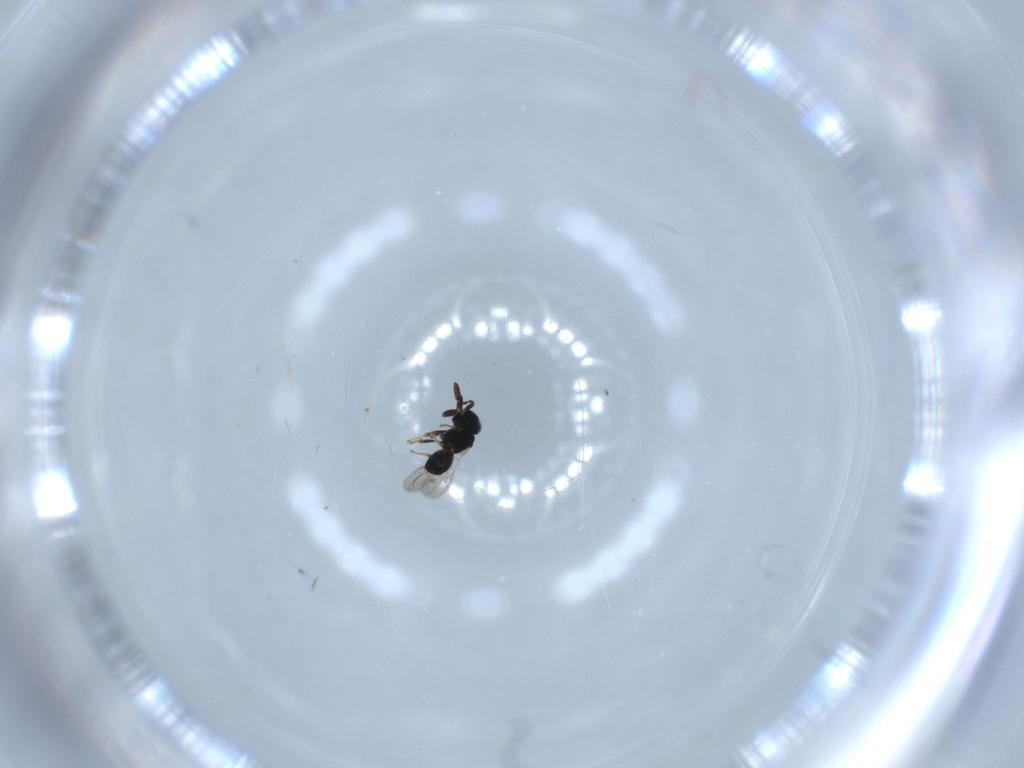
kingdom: Animalia
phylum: Arthropoda
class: Insecta
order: Hymenoptera
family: Scelionidae
